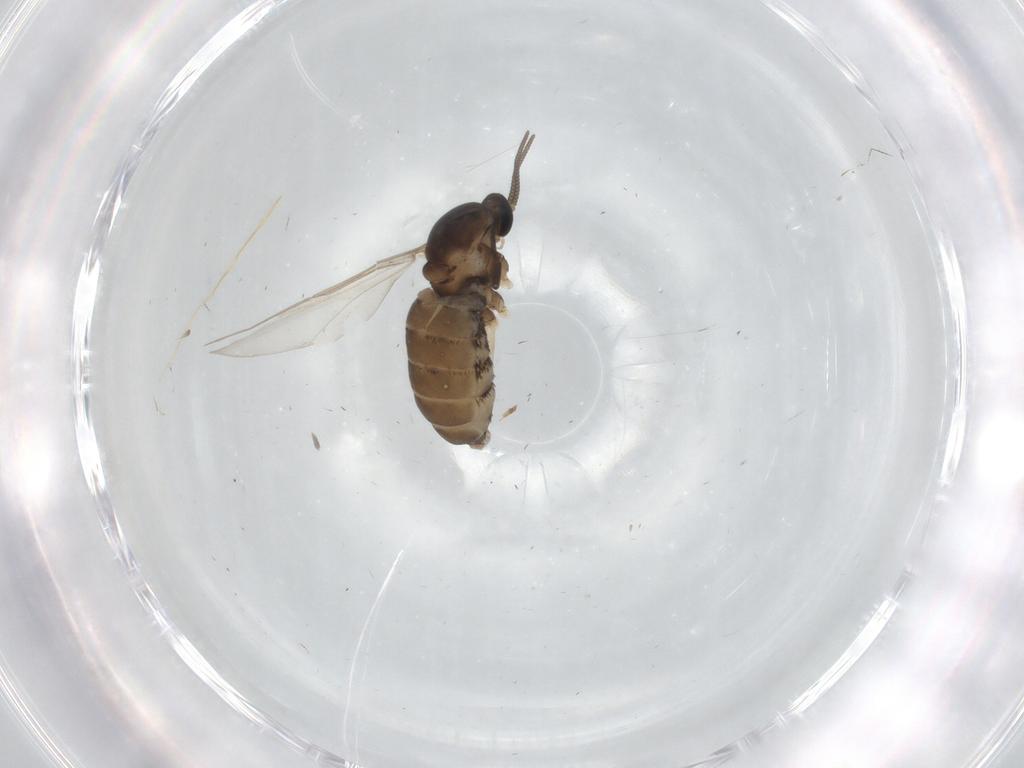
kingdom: Animalia
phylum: Arthropoda
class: Insecta
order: Diptera
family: Cecidomyiidae
